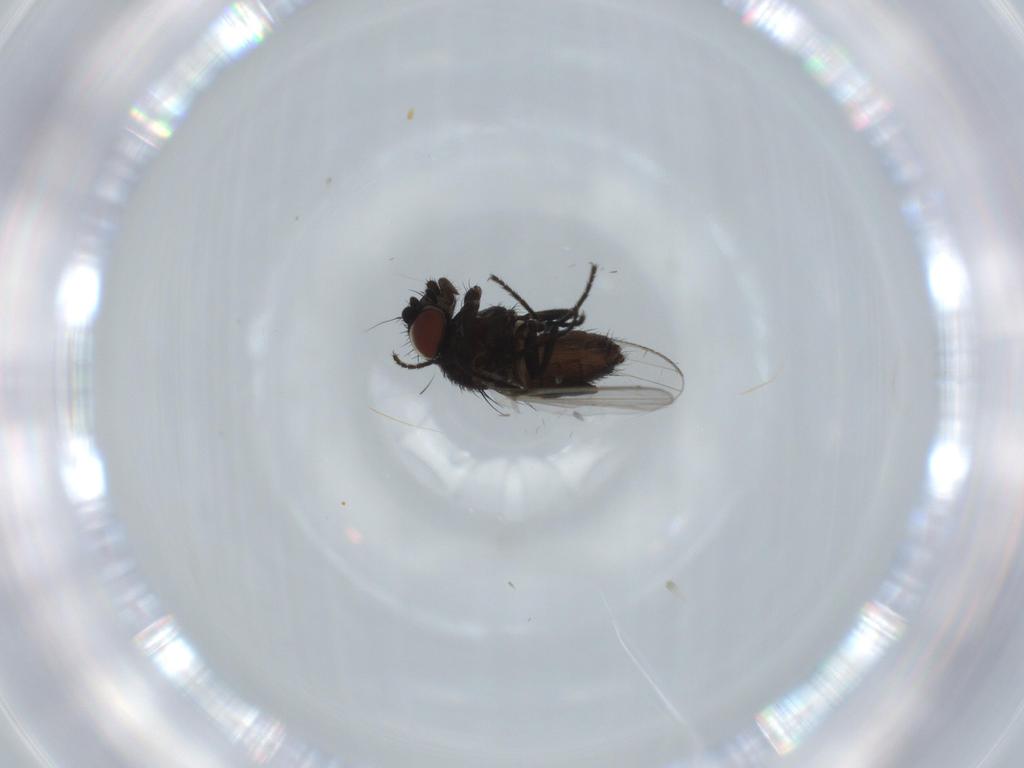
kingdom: Animalia
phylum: Arthropoda
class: Insecta
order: Diptera
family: Milichiidae
